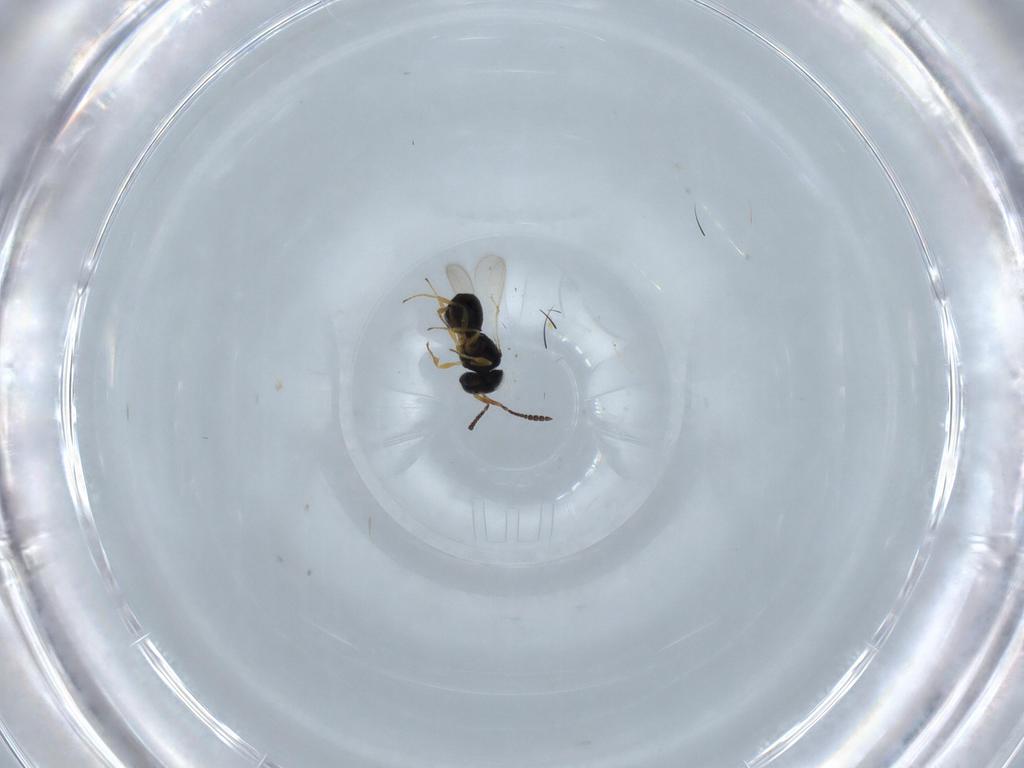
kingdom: Animalia
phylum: Arthropoda
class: Insecta
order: Hymenoptera
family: Scelionidae
